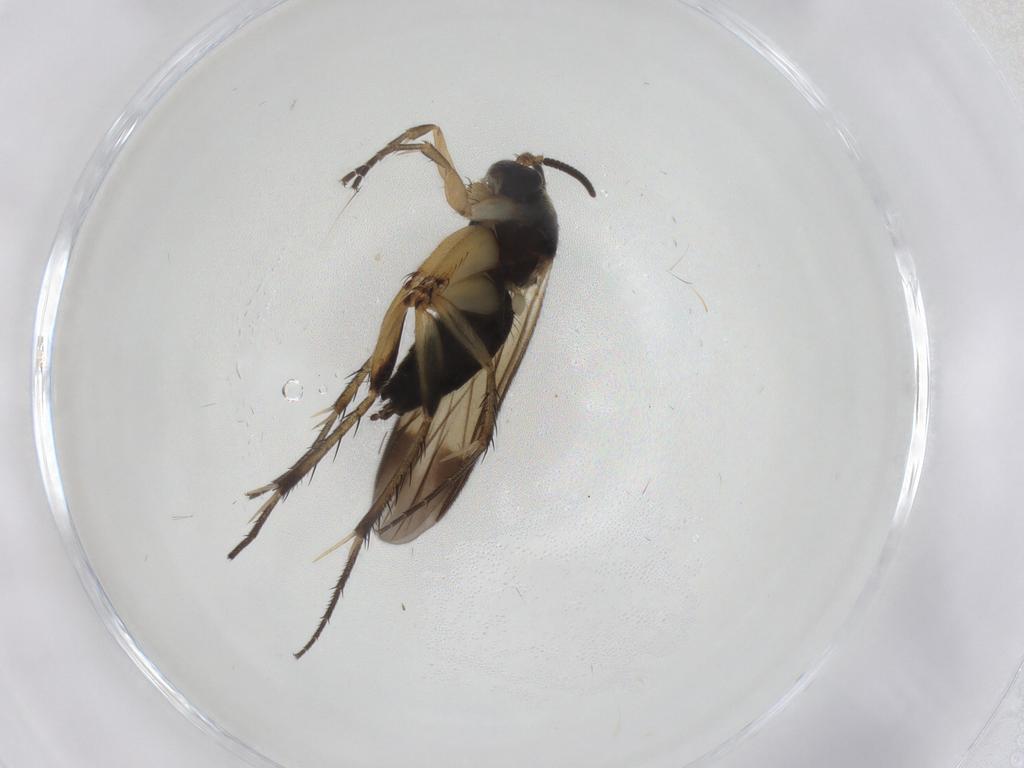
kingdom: Animalia
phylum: Arthropoda
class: Insecta
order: Diptera
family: Mycetophilidae
